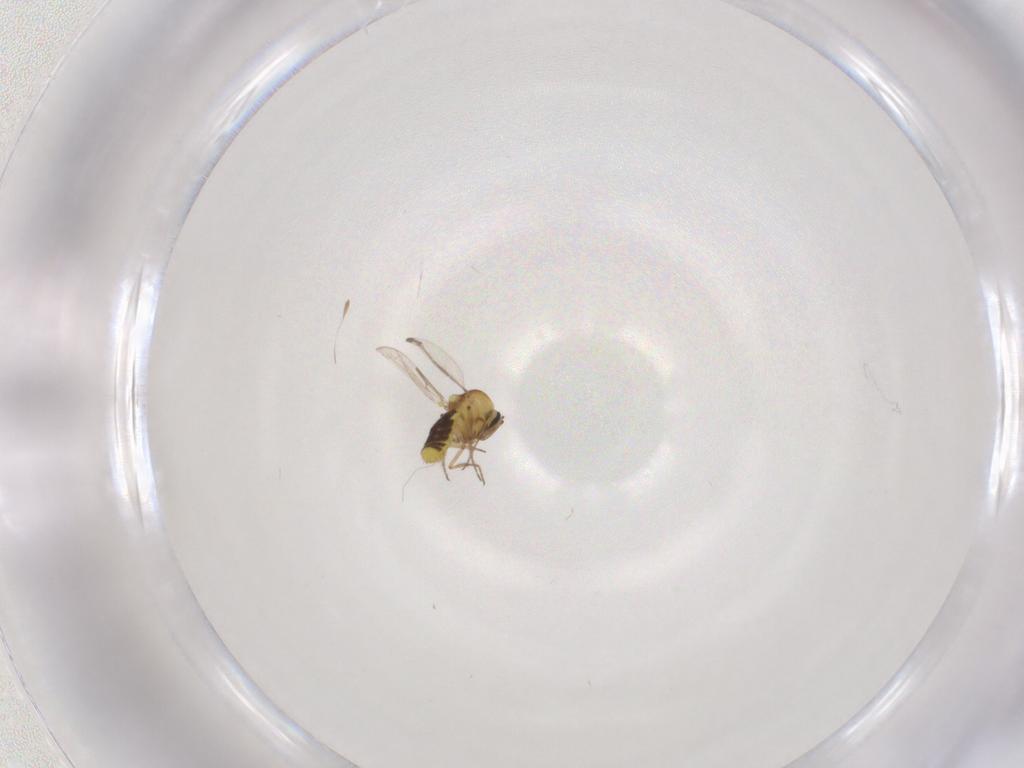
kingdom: Animalia
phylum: Arthropoda
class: Insecta
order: Diptera
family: Ceratopogonidae
